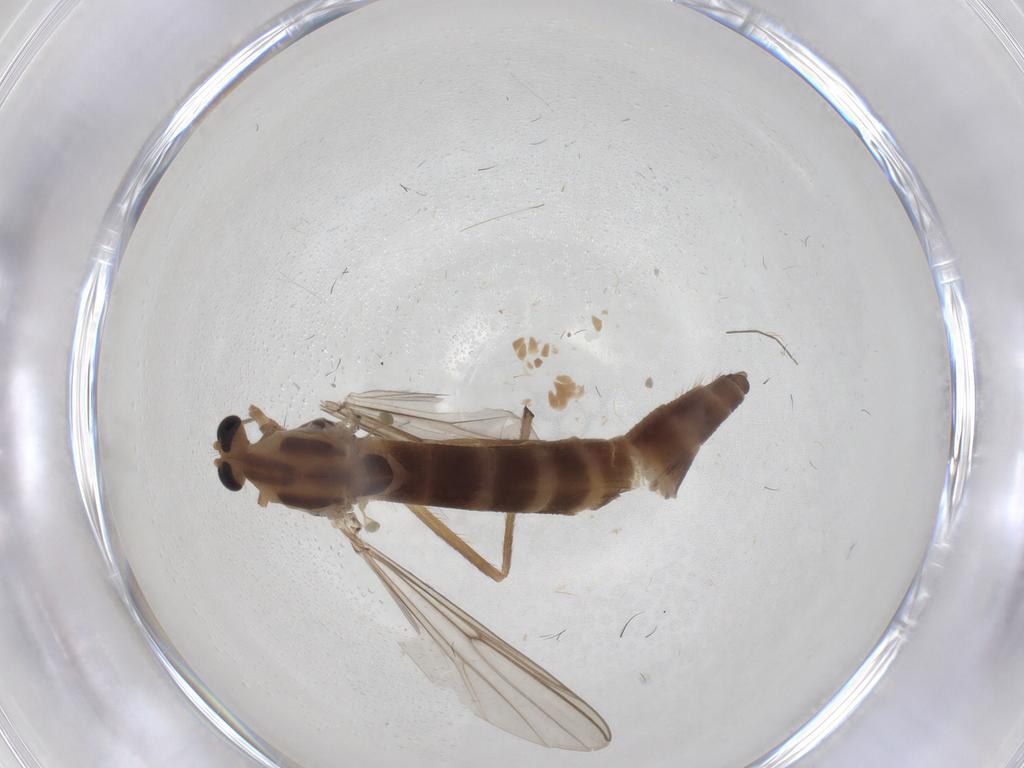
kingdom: Animalia
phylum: Arthropoda
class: Insecta
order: Diptera
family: Chironomidae
